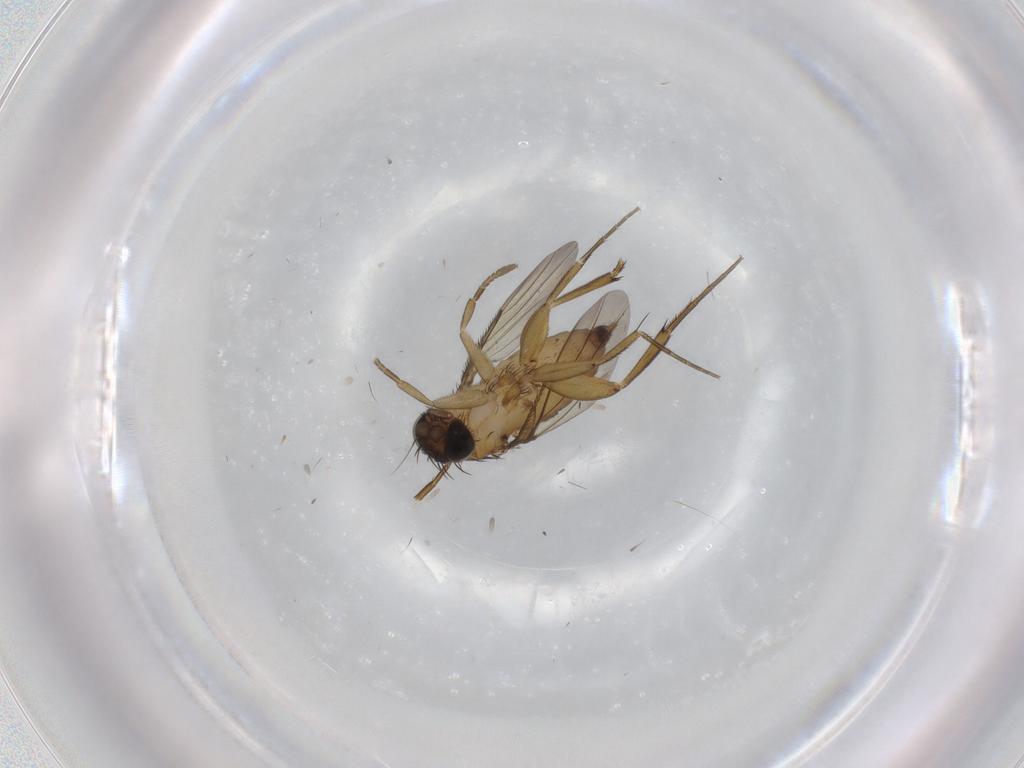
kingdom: Animalia
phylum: Arthropoda
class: Insecta
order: Diptera
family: Phoridae
